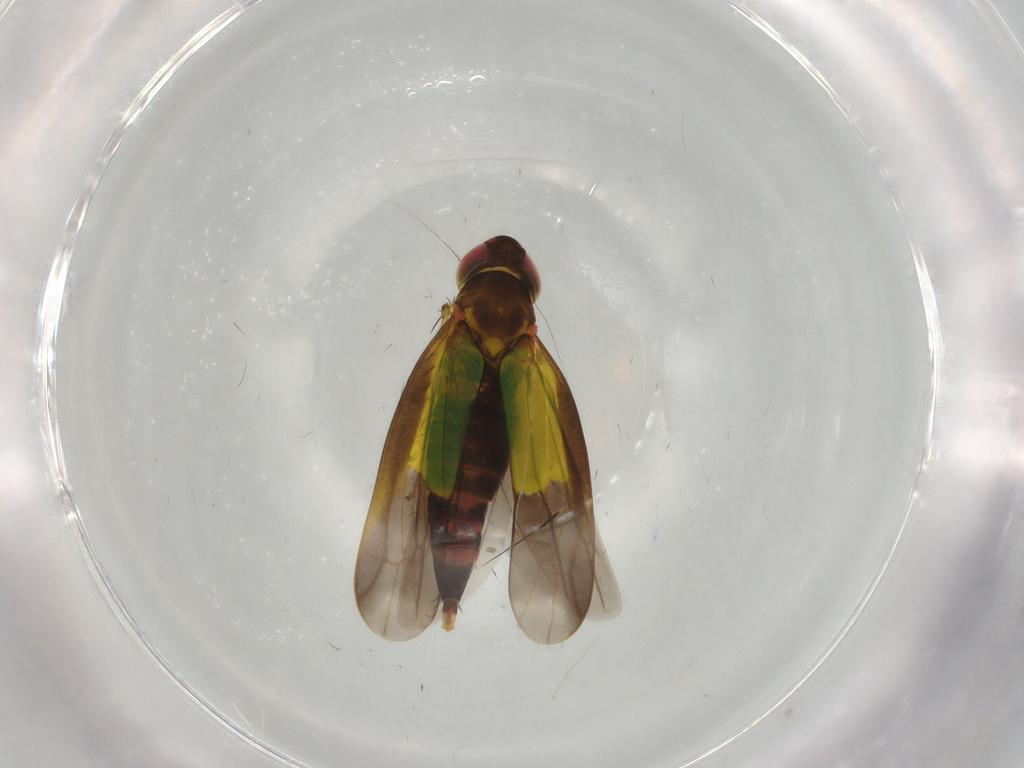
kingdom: Animalia
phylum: Arthropoda
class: Insecta
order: Hemiptera
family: Cicadellidae
